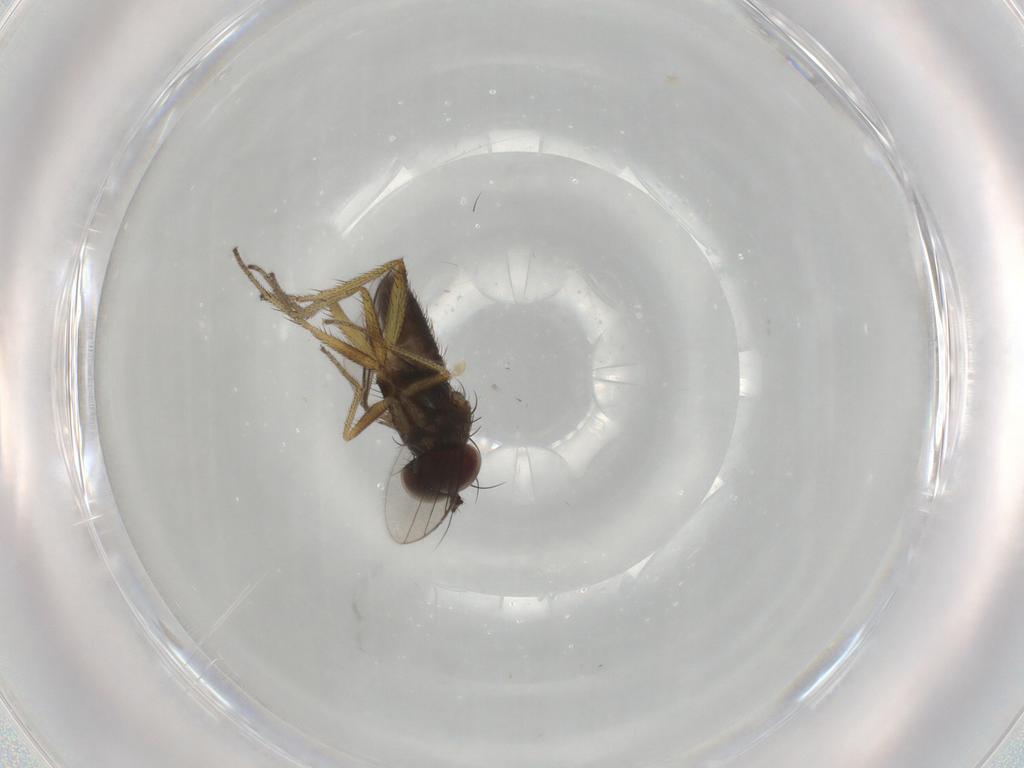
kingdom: Animalia
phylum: Arthropoda
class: Insecta
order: Diptera
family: Dolichopodidae
